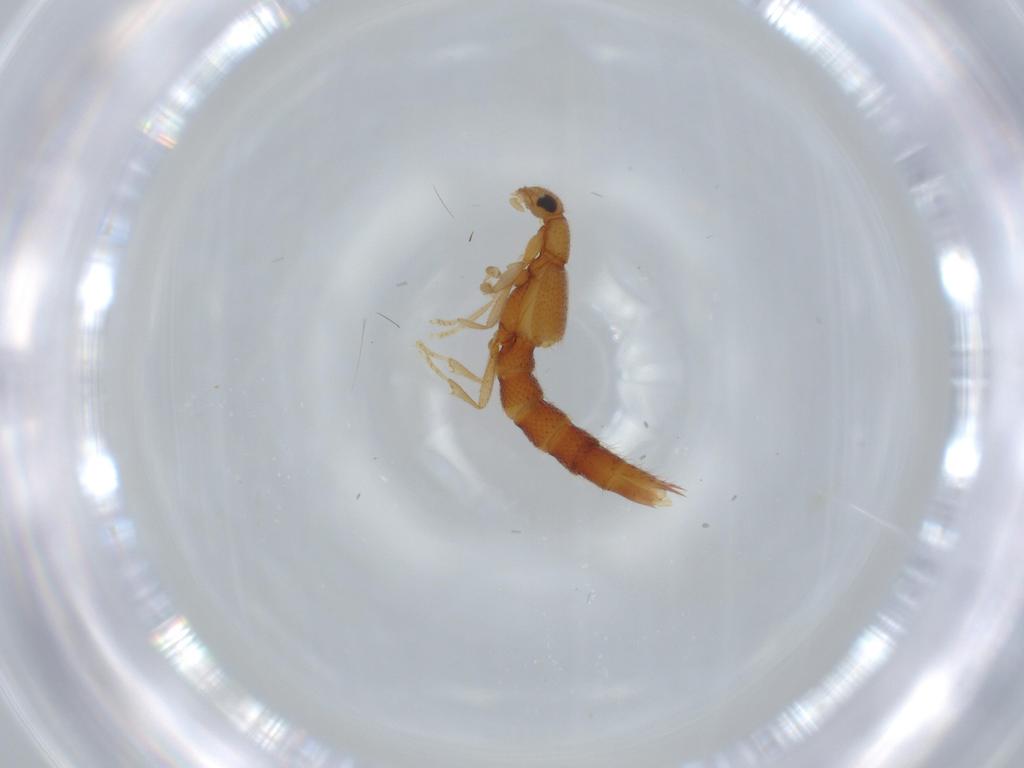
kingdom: Animalia
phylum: Arthropoda
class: Insecta
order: Coleoptera
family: Staphylinidae
